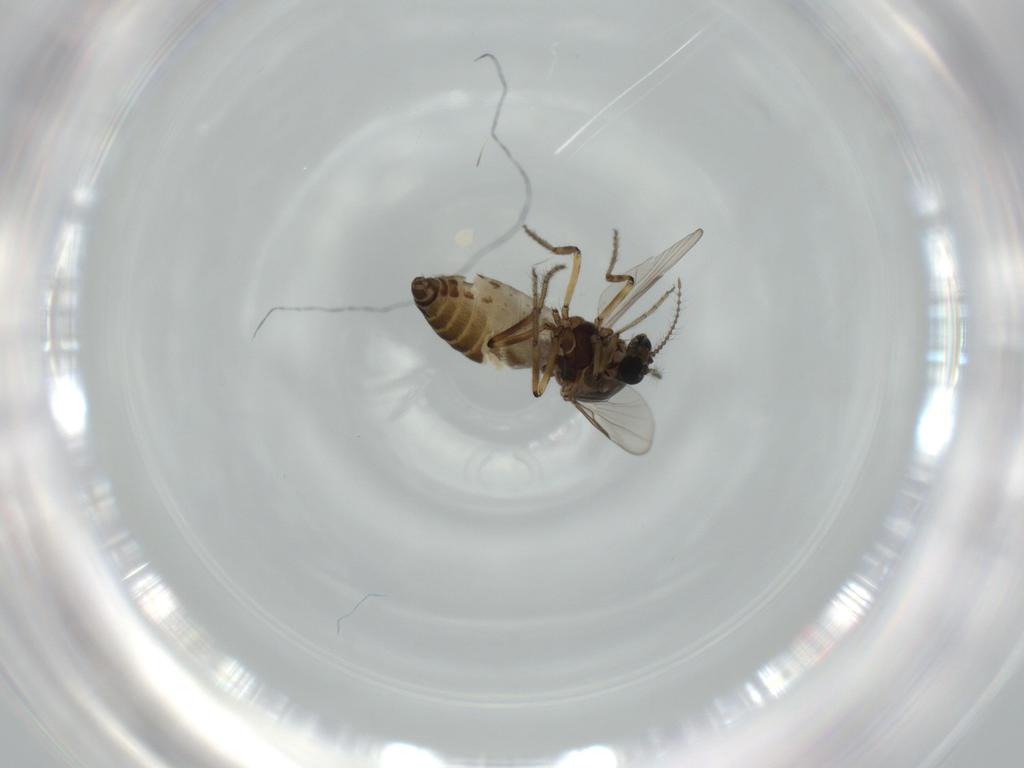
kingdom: Animalia
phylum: Arthropoda
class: Insecta
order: Diptera
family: Ceratopogonidae
